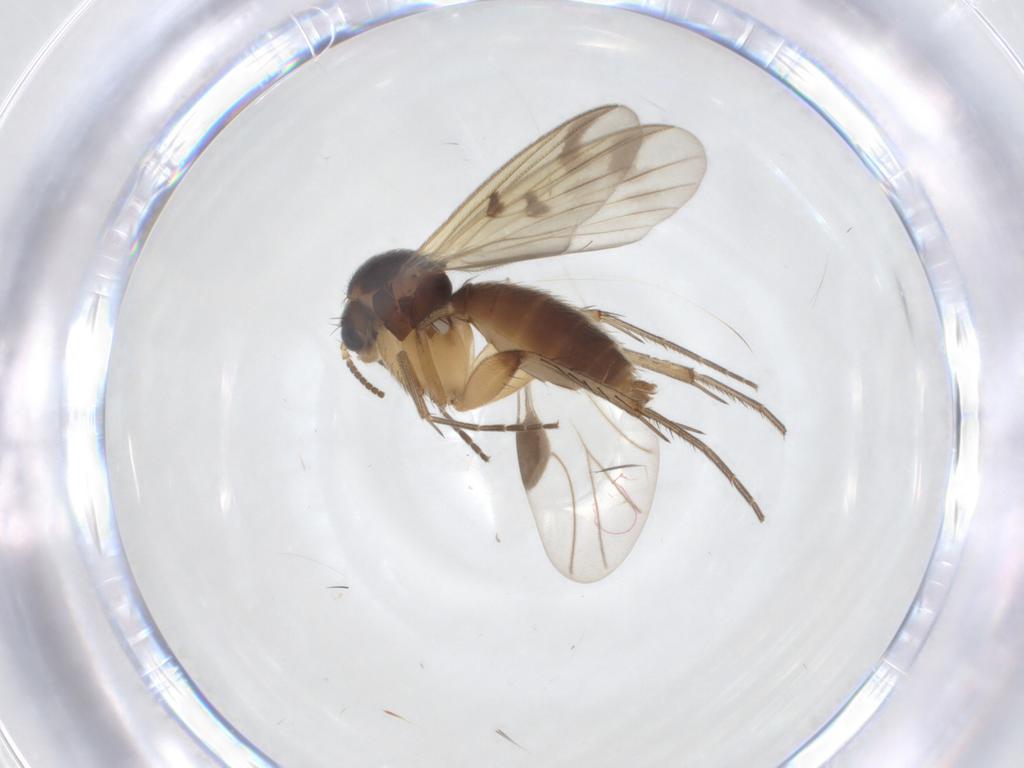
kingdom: Animalia
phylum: Arthropoda
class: Insecta
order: Diptera
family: Mycetophilidae
